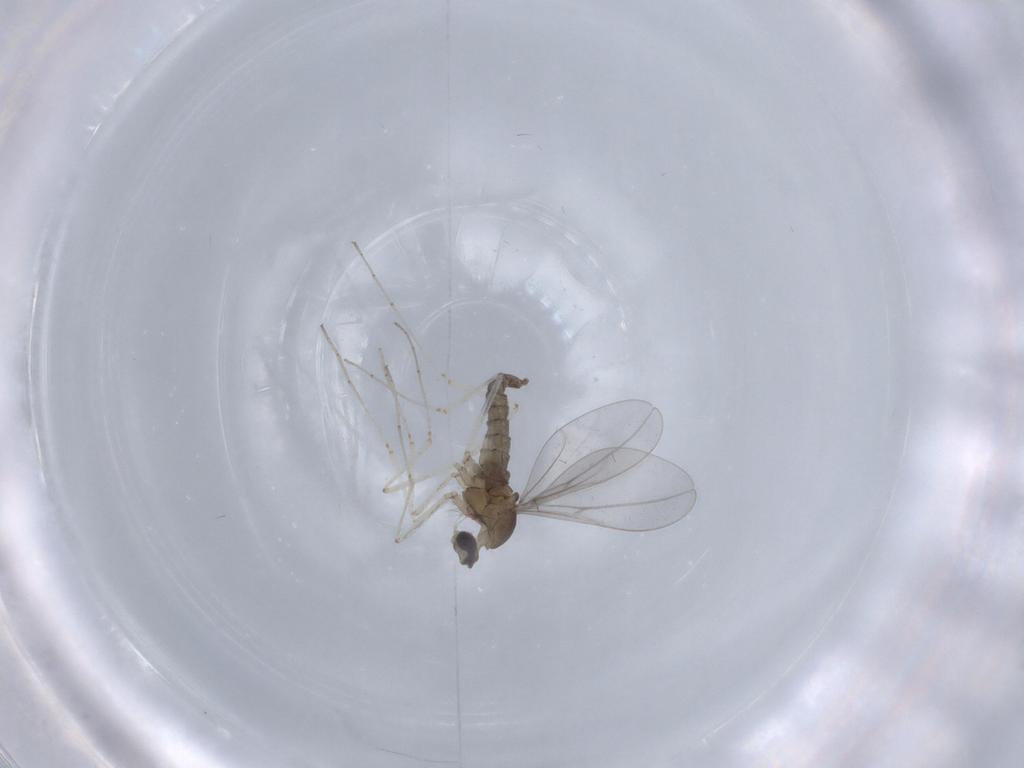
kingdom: Animalia
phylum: Arthropoda
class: Insecta
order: Diptera
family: Cecidomyiidae
